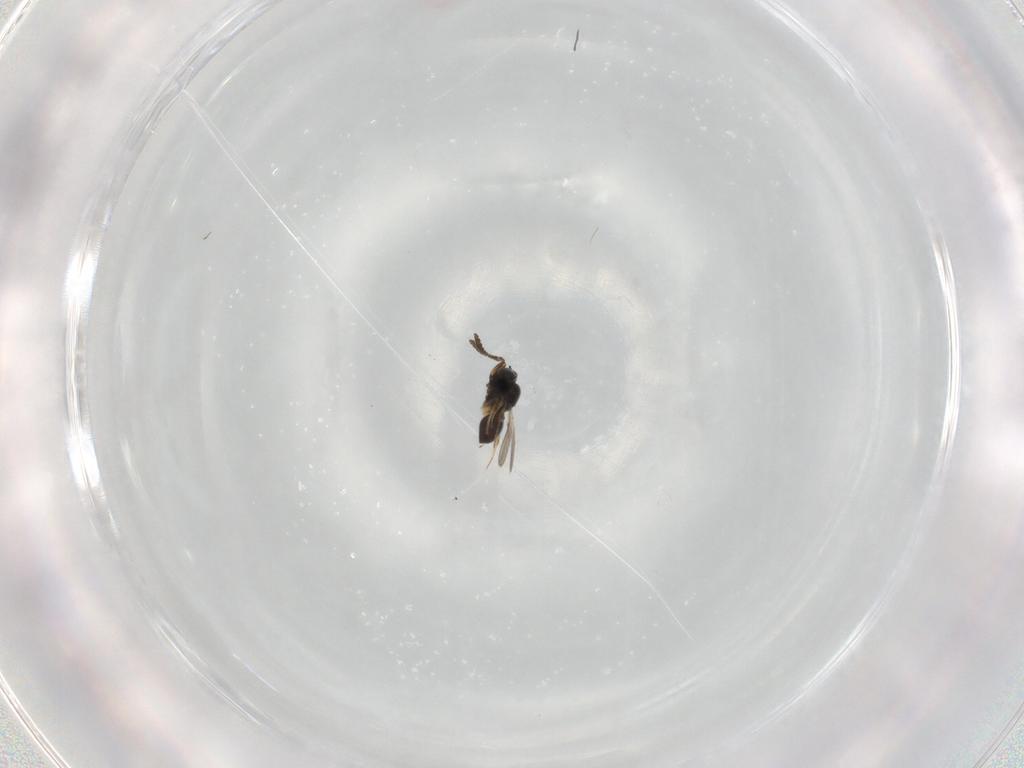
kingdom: Animalia
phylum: Arthropoda
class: Insecta
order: Hymenoptera
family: Scelionidae
